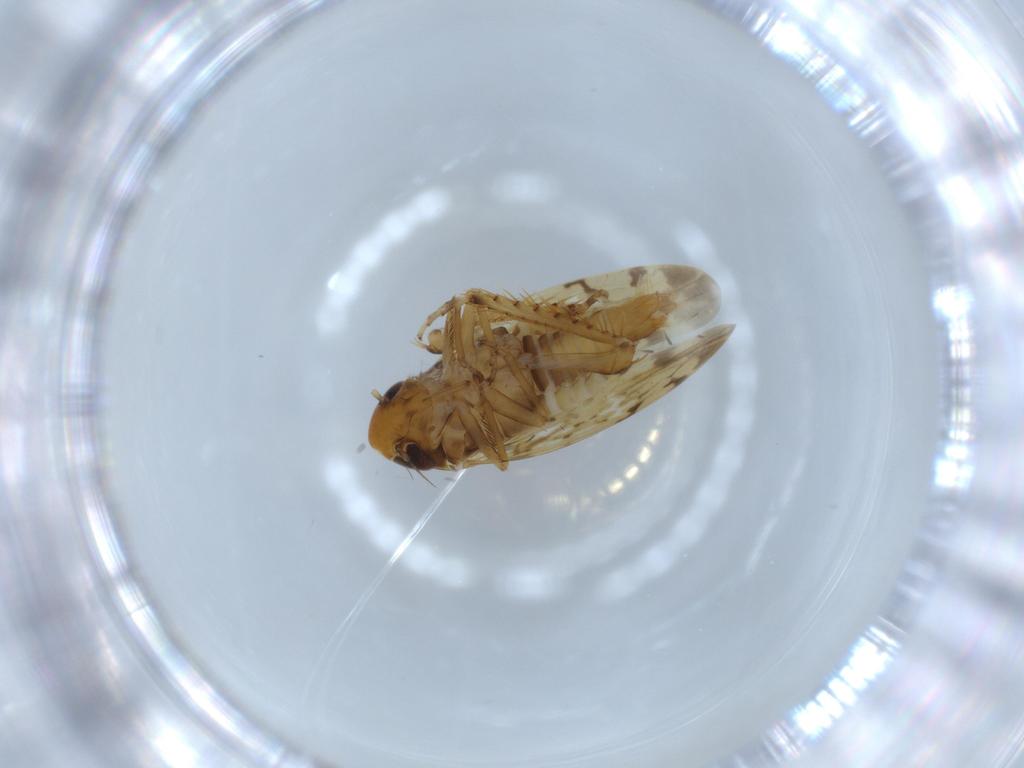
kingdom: Animalia
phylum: Arthropoda
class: Insecta
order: Hemiptera
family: Cicadellidae
